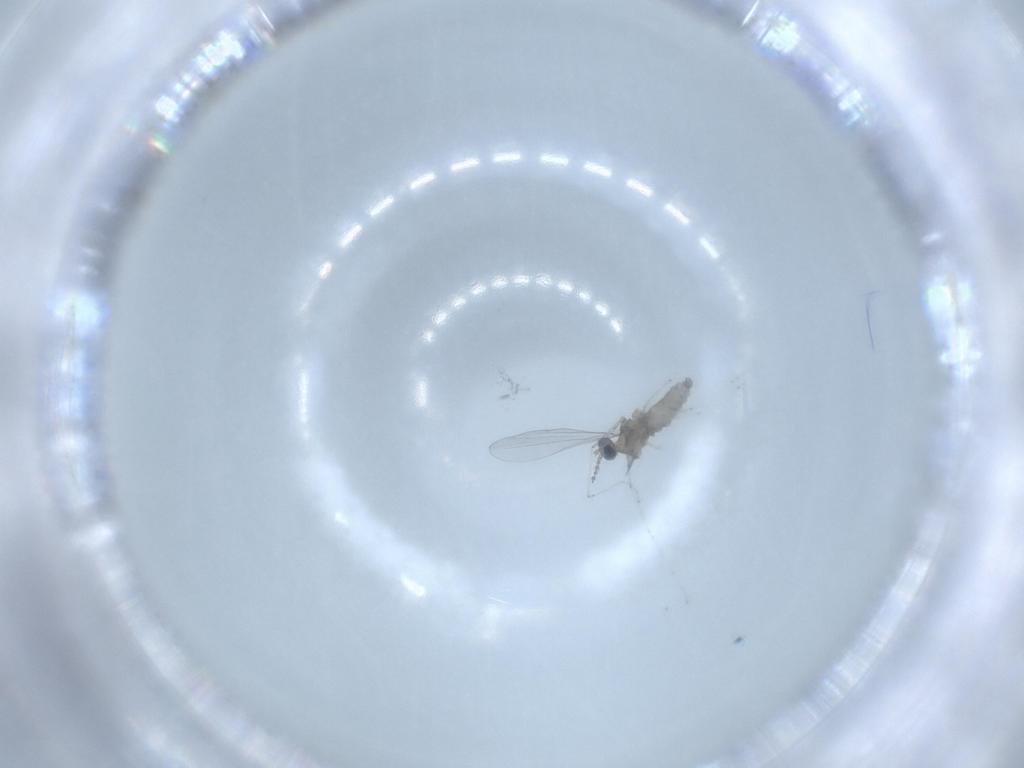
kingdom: Animalia
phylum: Arthropoda
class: Insecta
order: Diptera
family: Cecidomyiidae
